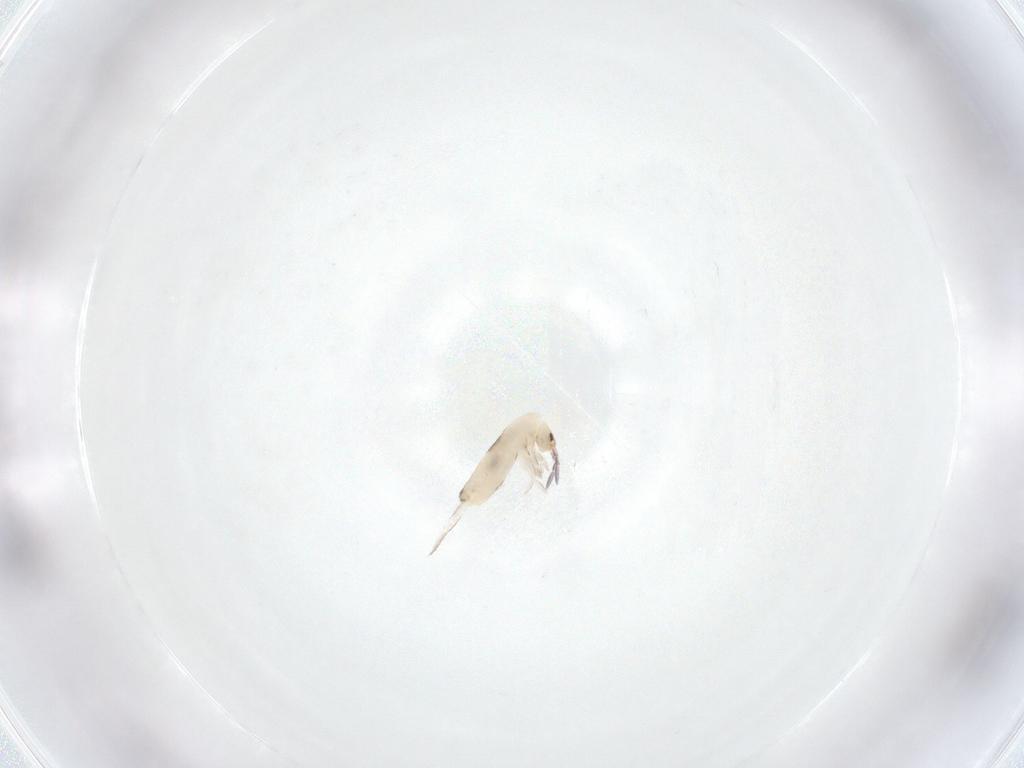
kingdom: Animalia
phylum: Arthropoda
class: Collembola
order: Entomobryomorpha
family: Entomobryidae
